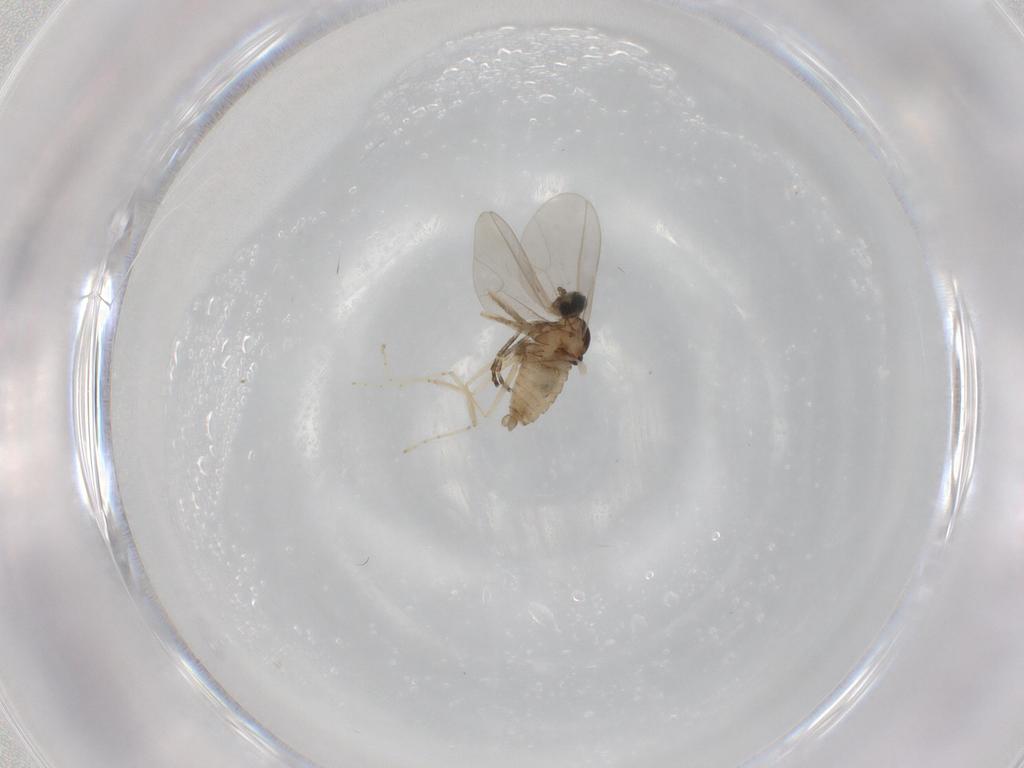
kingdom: Animalia
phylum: Arthropoda
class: Insecta
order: Diptera
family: Cecidomyiidae
